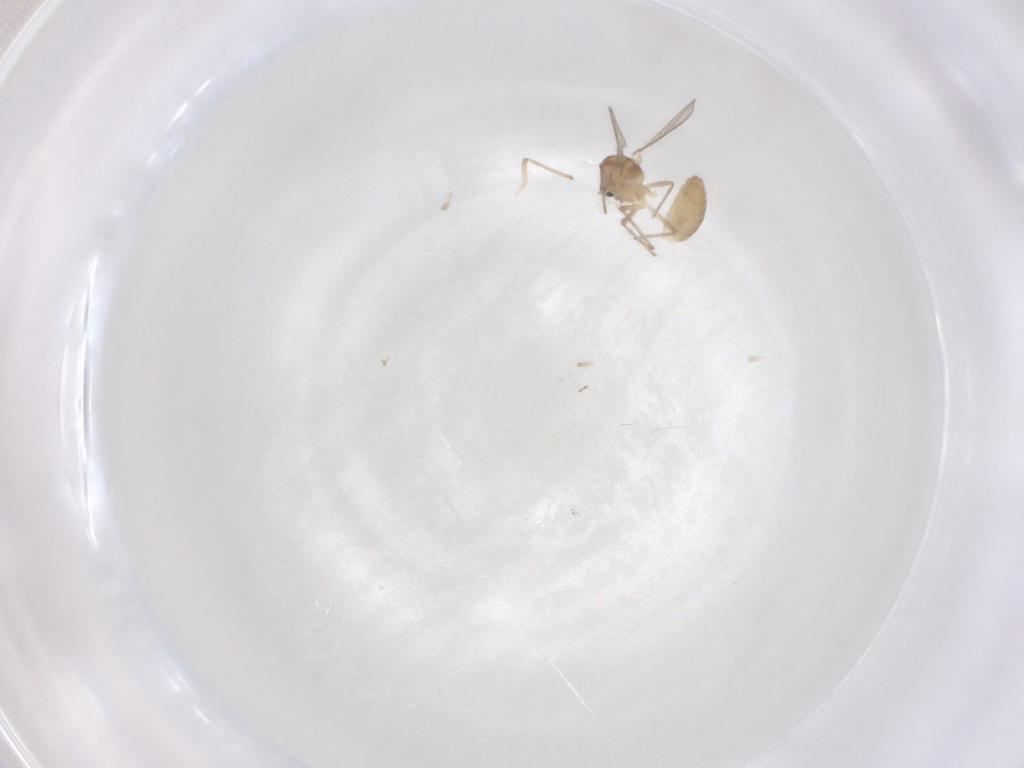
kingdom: Animalia
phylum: Arthropoda
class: Insecta
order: Diptera
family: Chironomidae
